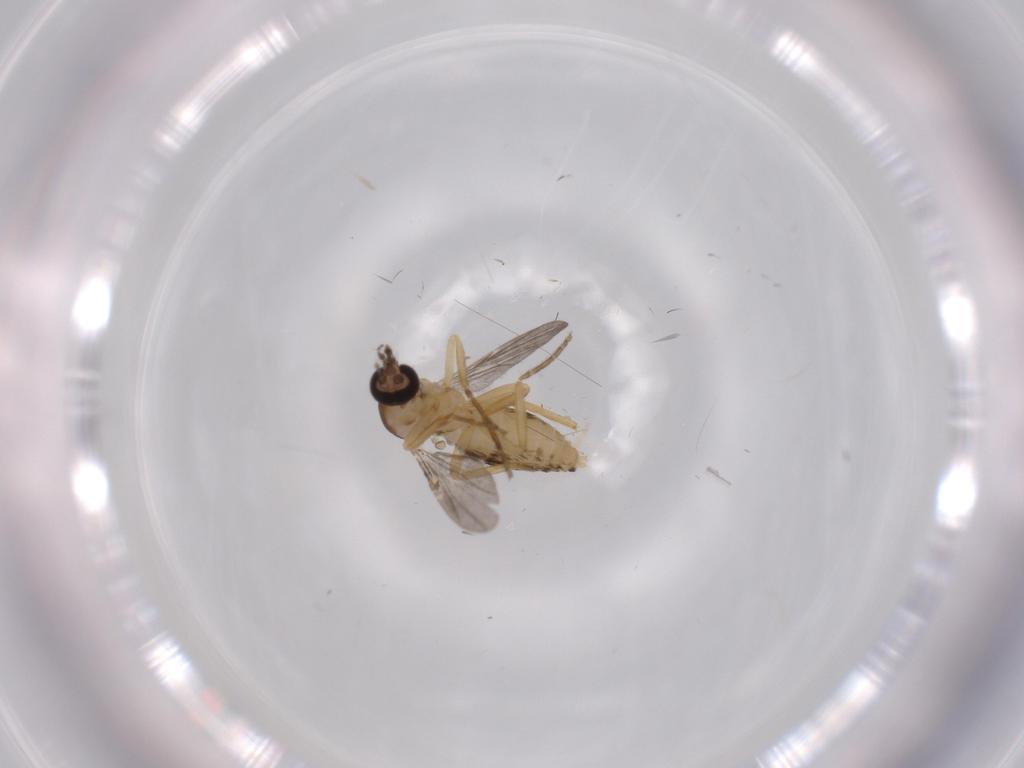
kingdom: Animalia
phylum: Arthropoda
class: Insecta
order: Diptera
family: Ceratopogonidae
